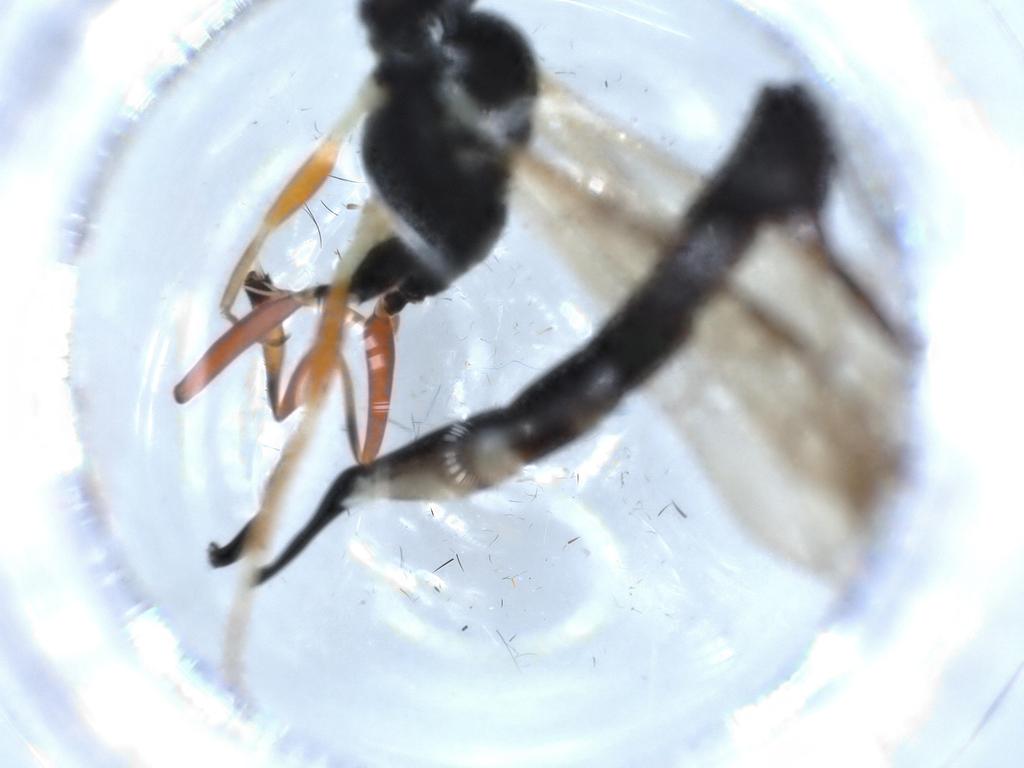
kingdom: Animalia
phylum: Arthropoda
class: Insecta
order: Hymenoptera
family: Ichneumonidae
